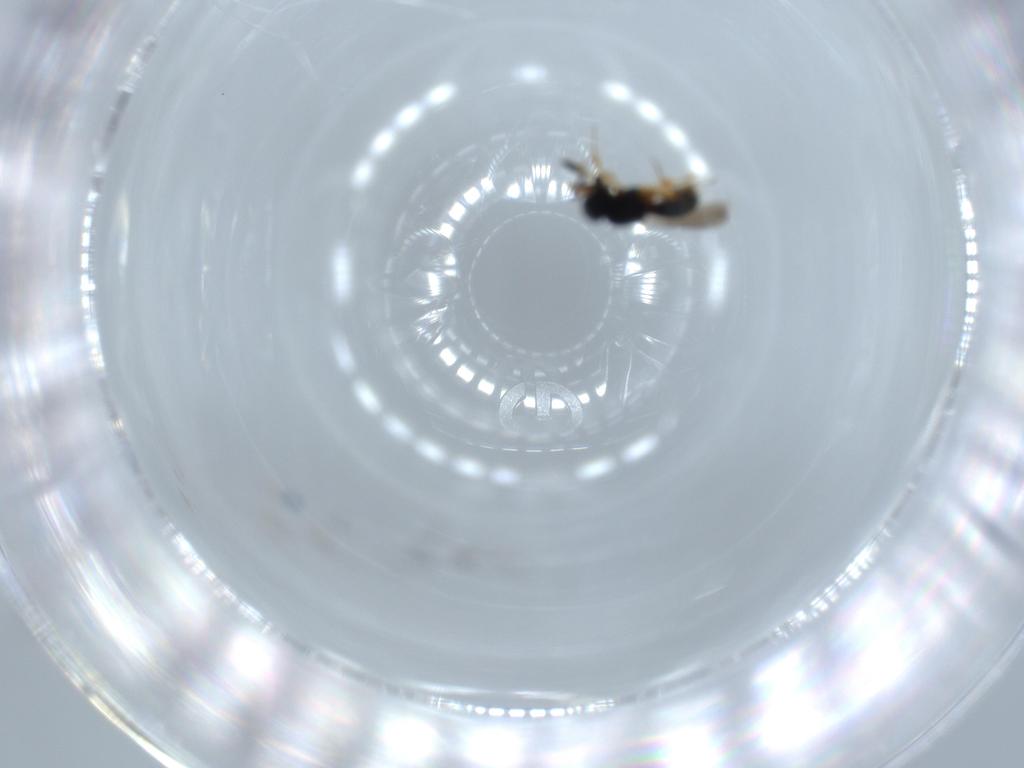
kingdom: Animalia
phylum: Arthropoda
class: Insecta
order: Hymenoptera
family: Scelionidae
